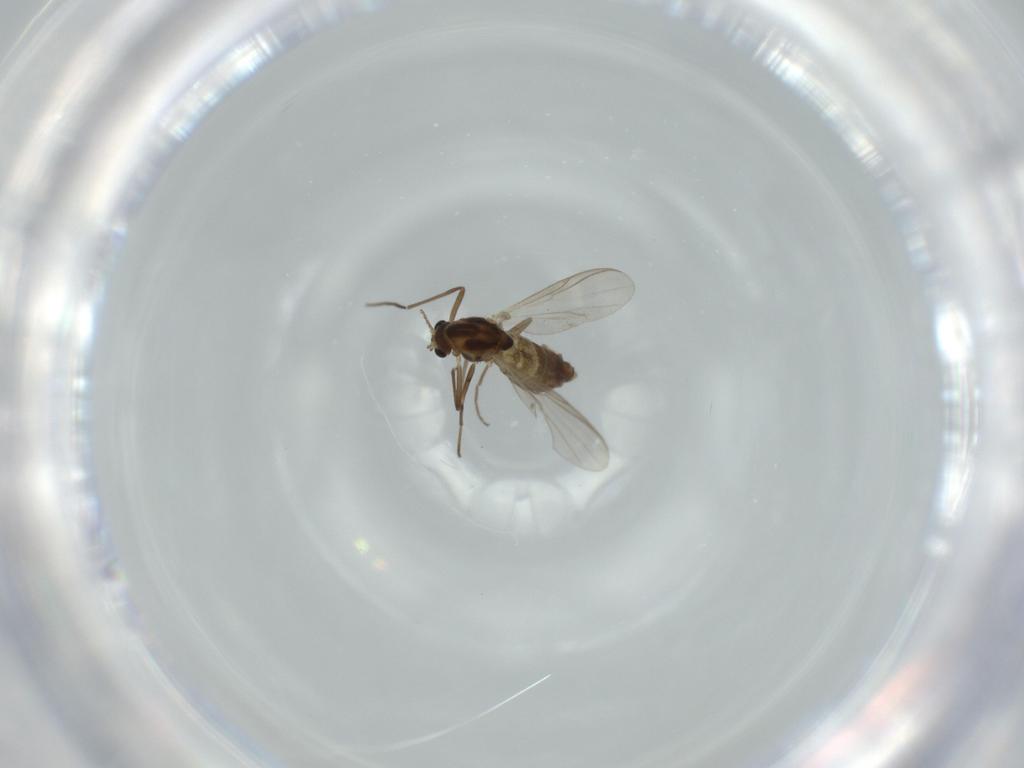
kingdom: Animalia
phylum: Arthropoda
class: Insecta
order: Diptera
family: Chironomidae
